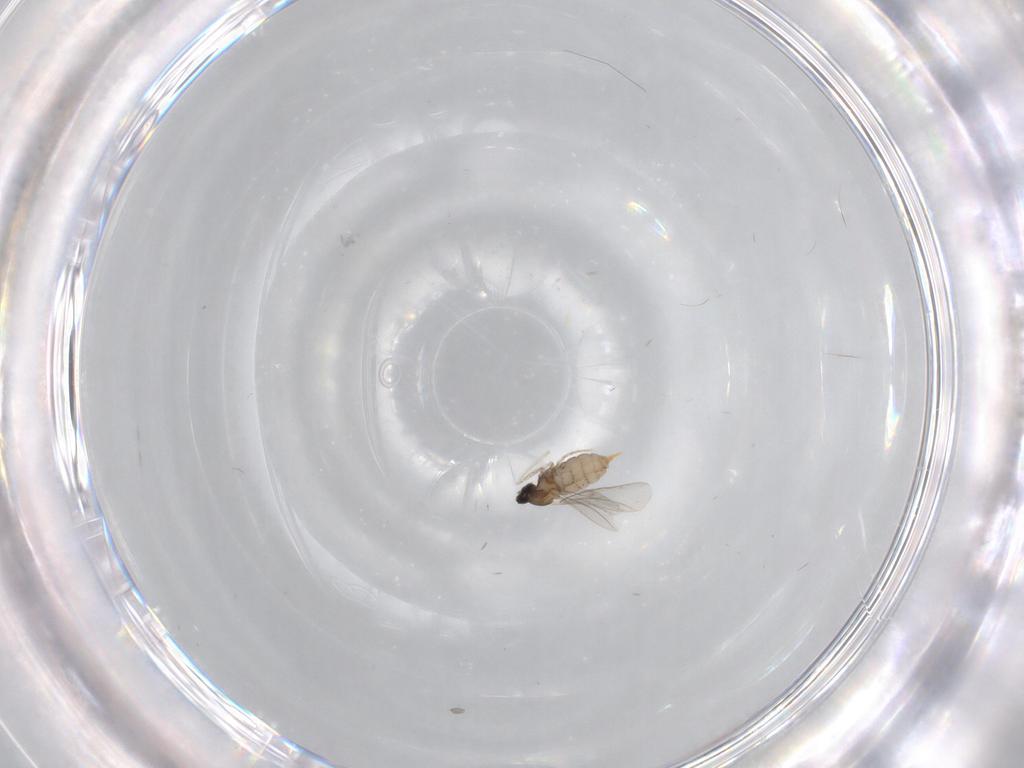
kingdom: Animalia
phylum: Arthropoda
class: Insecta
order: Diptera
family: Cecidomyiidae
